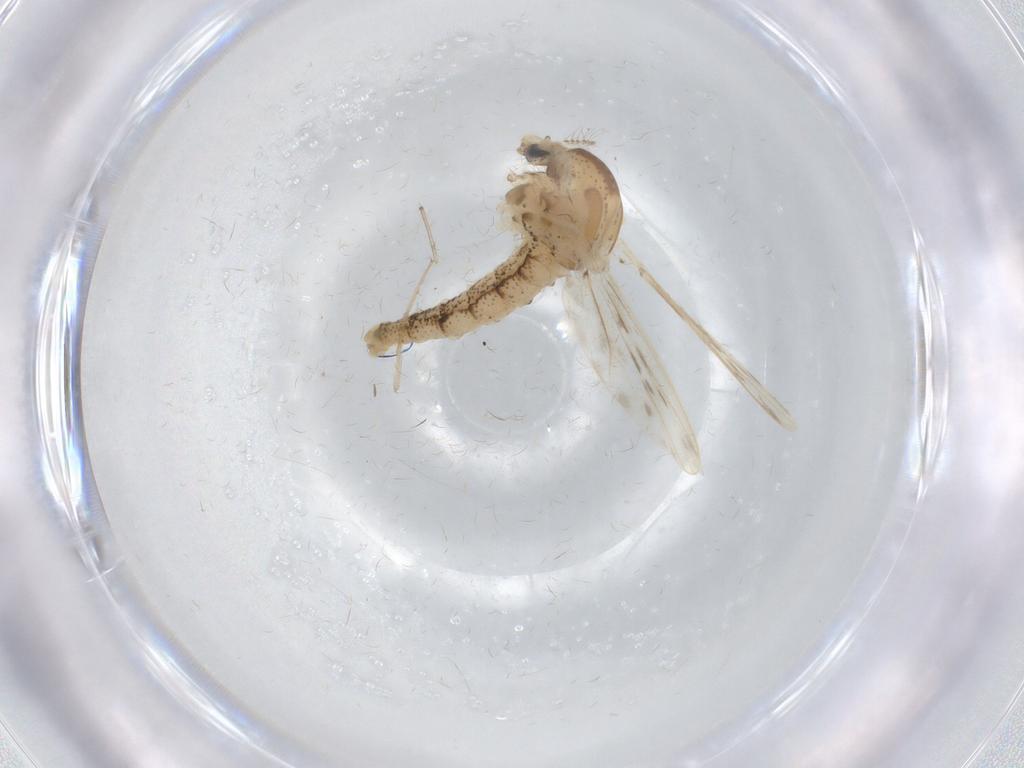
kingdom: Animalia
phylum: Arthropoda
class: Insecta
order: Diptera
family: Chaoboridae
